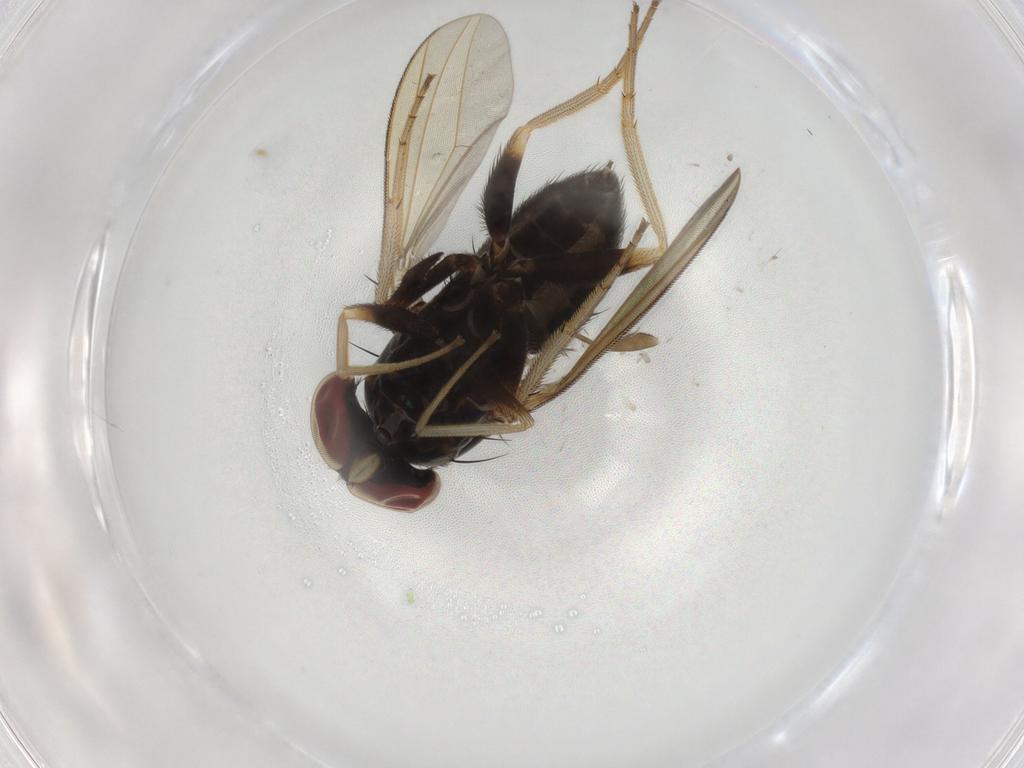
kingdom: Animalia
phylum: Arthropoda
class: Insecta
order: Diptera
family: Dolichopodidae
